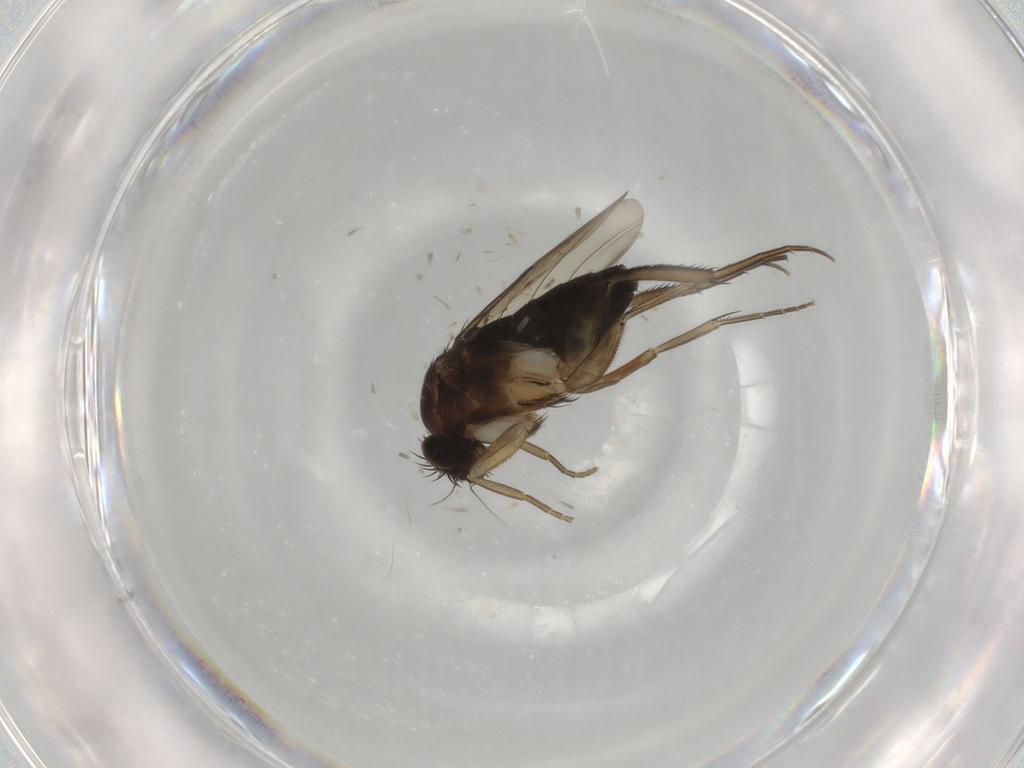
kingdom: Animalia
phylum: Arthropoda
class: Insecta
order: Diptera
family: Phoridae
